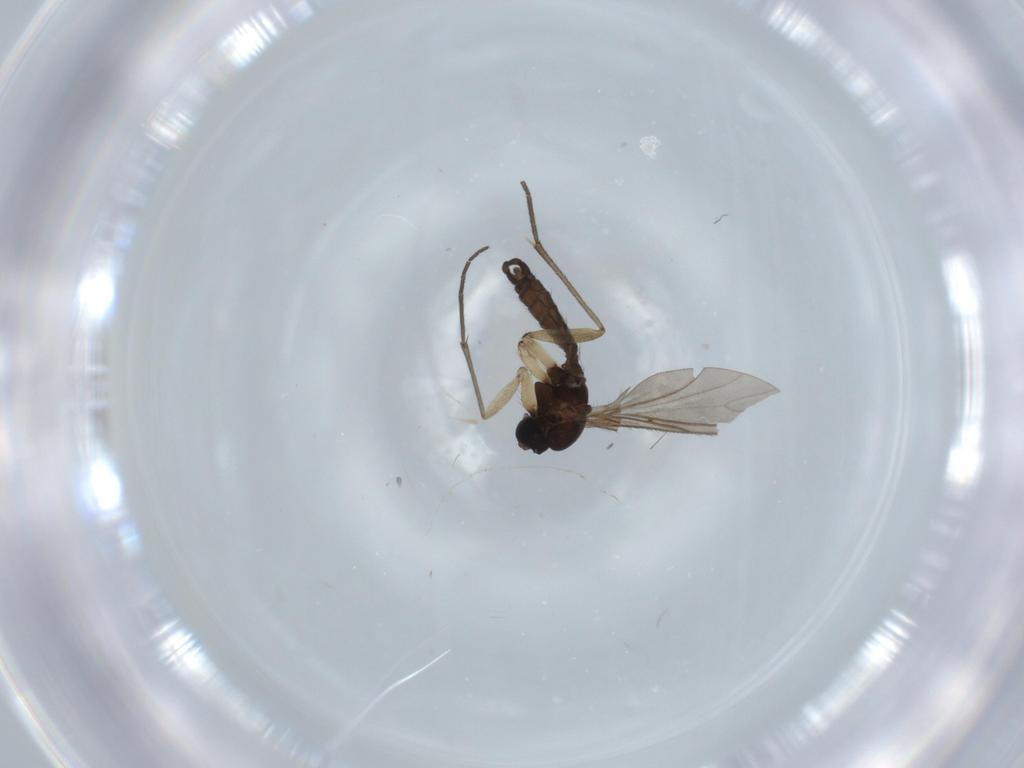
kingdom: Animalia
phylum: Arthropoda
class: Insecta
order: Diptera
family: Sciaridae
